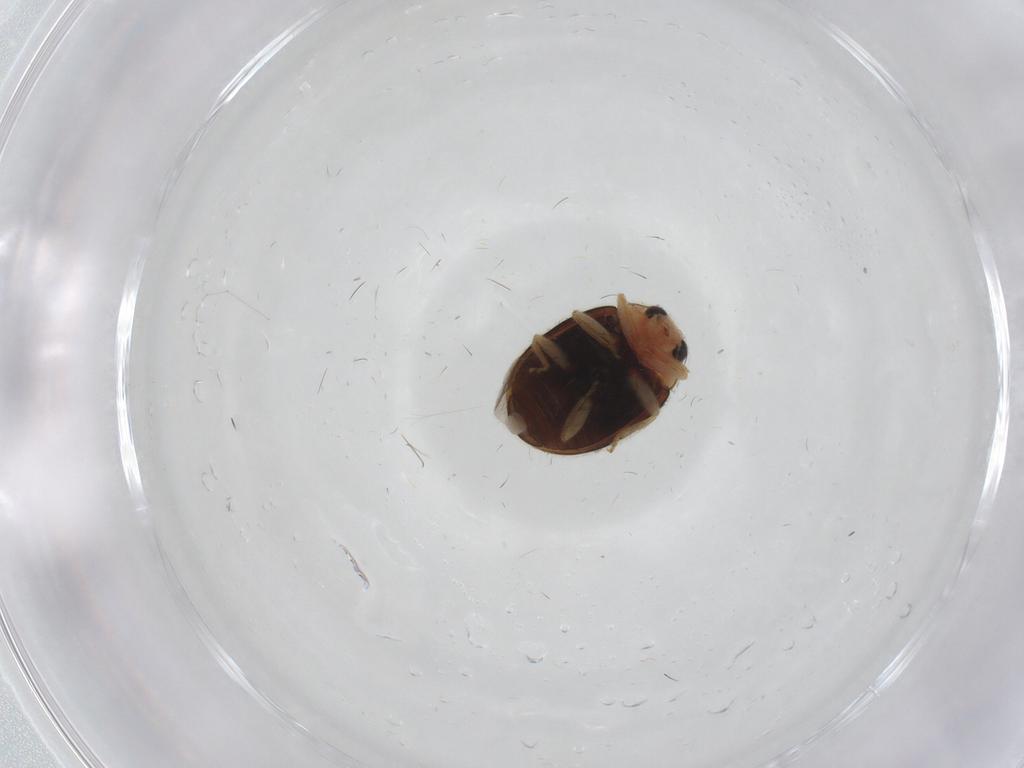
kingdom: Animalia
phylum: Arthropoda
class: Insecta
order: Coleoptera
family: Coccinellidae
